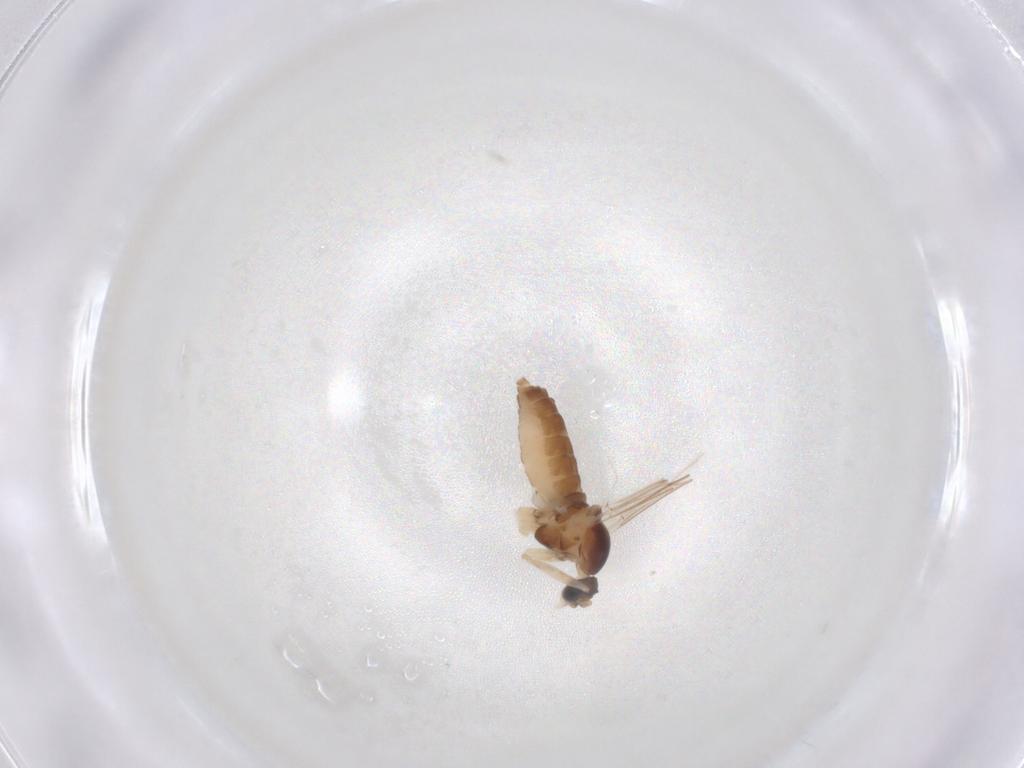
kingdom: Animalia
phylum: Arthropoda
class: Insecta
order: Diptera
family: Cecidomyiidae
